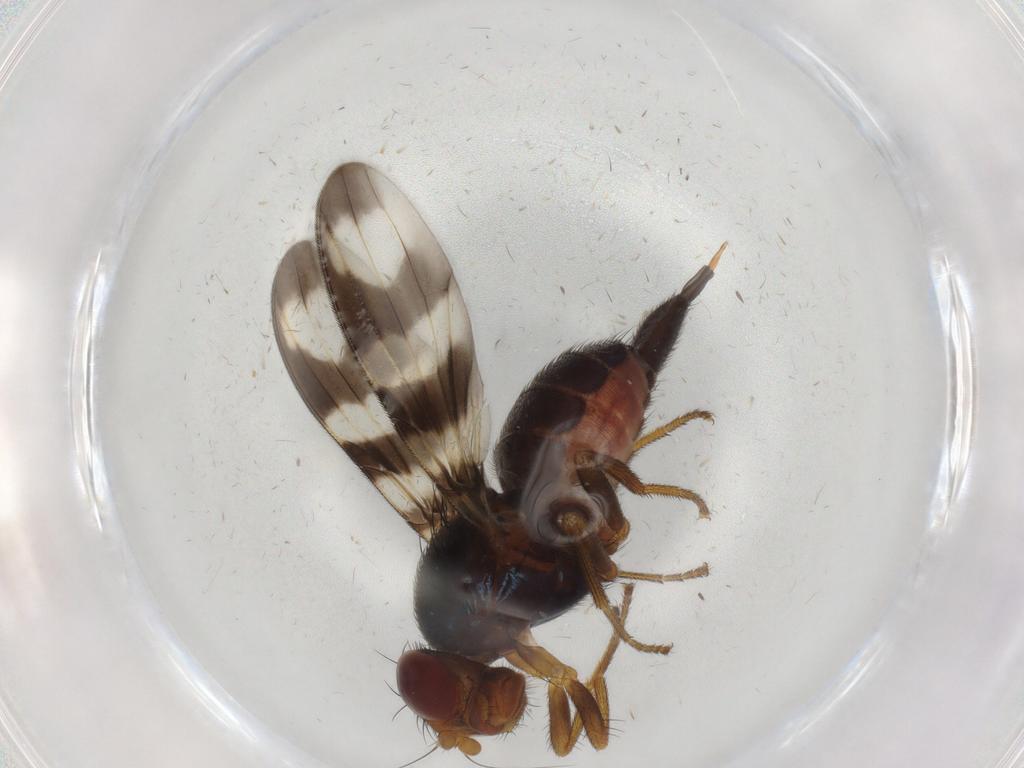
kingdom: Animalia
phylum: Arthropoda
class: Insecta
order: Diptera
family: Ulidiidae
